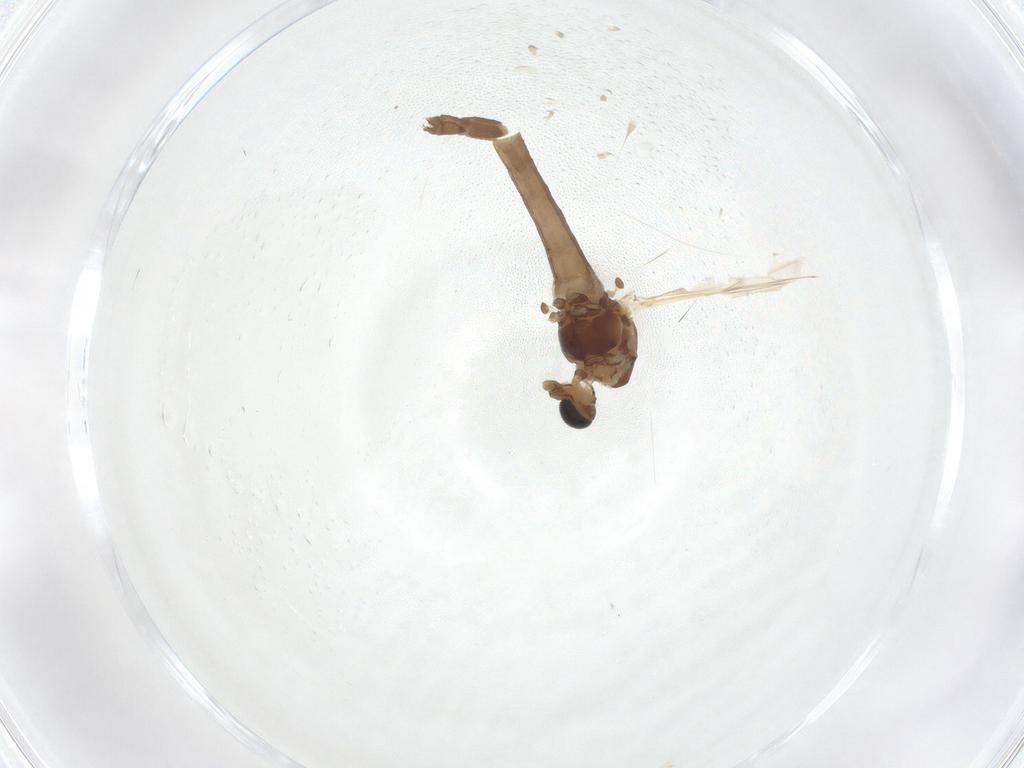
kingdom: Animalia
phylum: Arthropoda
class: Insecta
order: Diptera
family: Chironomidae
